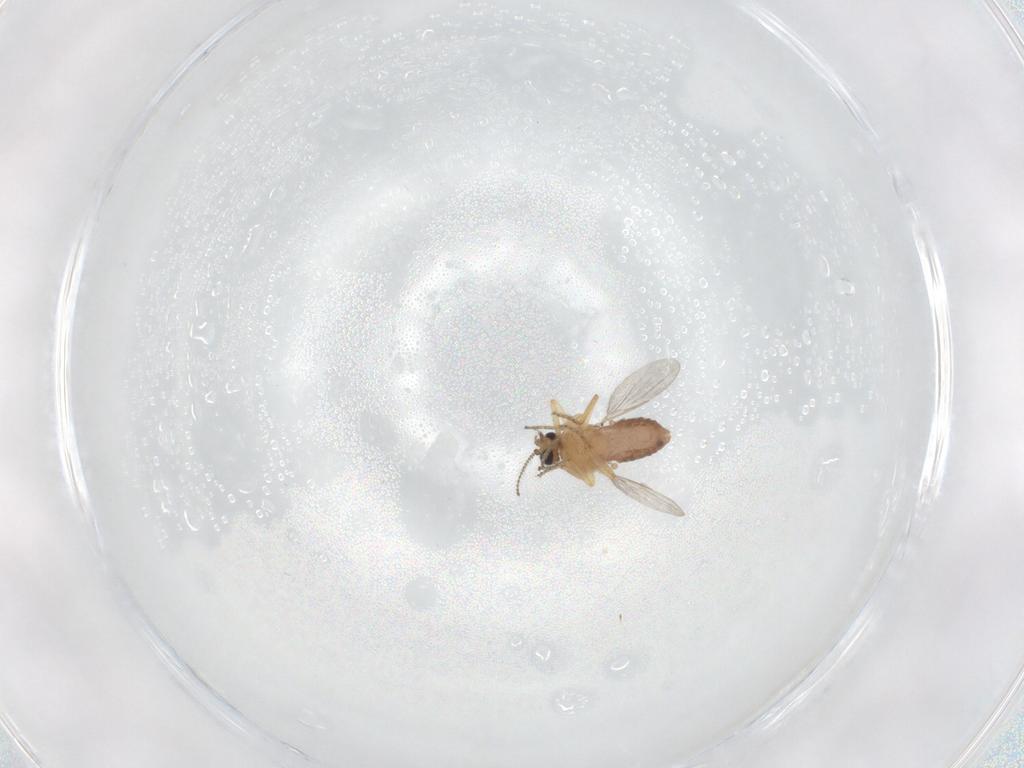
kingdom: Animalia
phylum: Arthropoda
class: Insecta
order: Diptera
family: Ceratopogonidae
